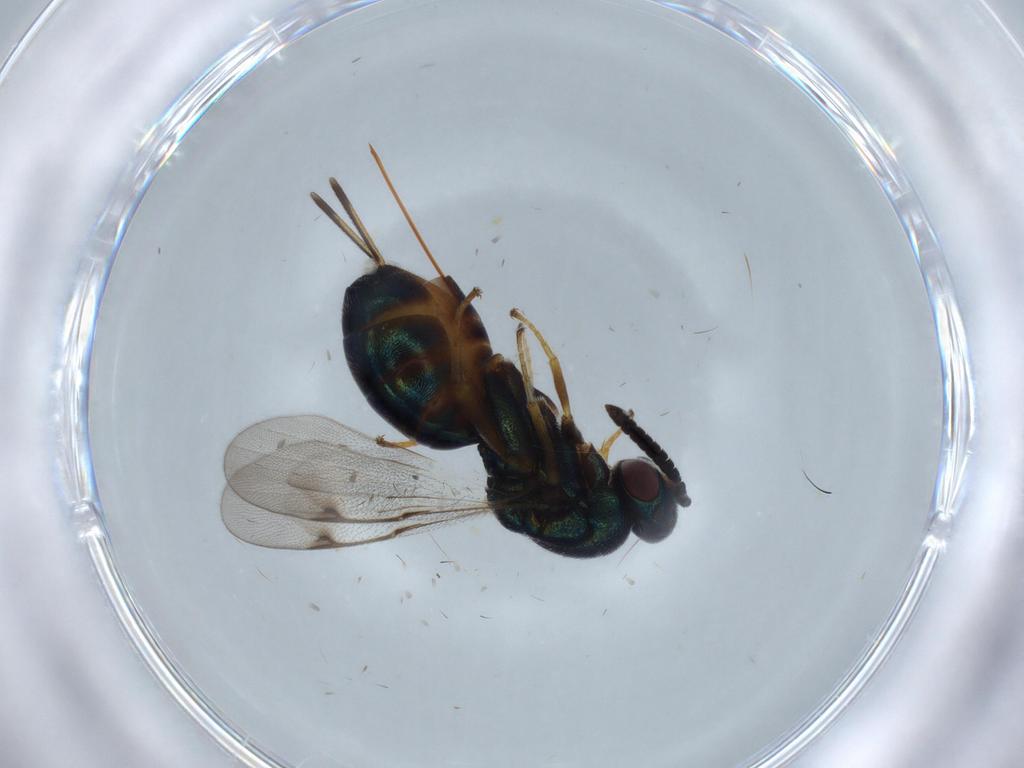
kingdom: Animalia
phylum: Arthropoda
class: Insecta
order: Hymenoptera
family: Torymidae
